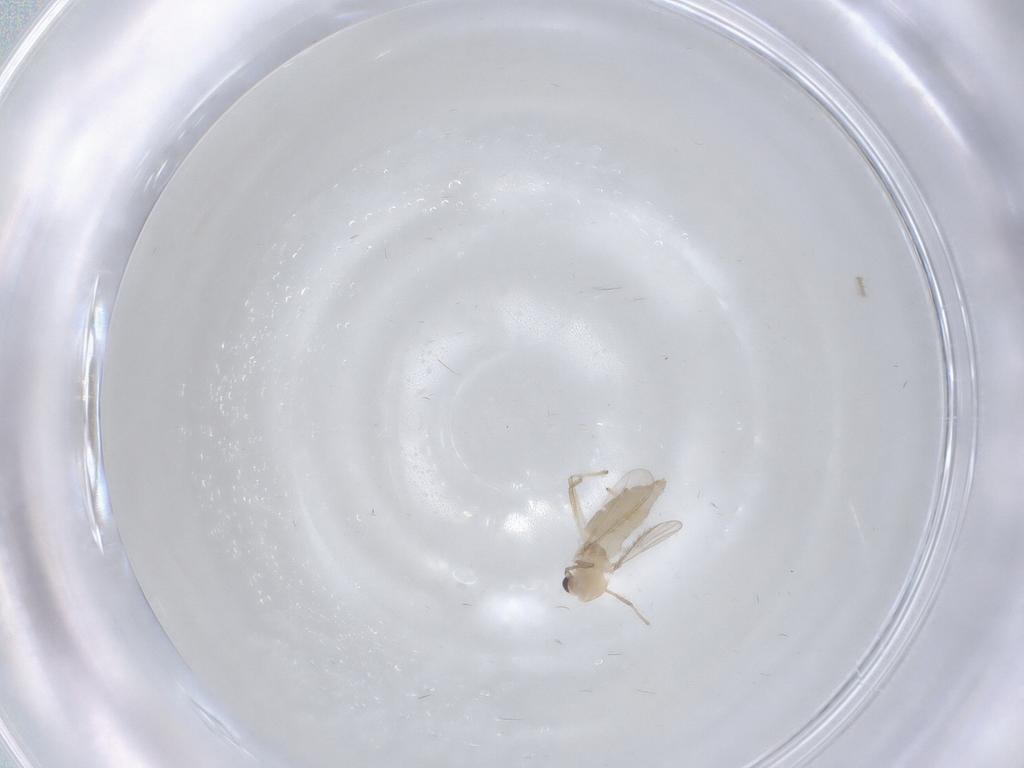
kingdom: Animalia
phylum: Arthropoda
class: Insecta
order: Diptera
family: Chironomidae
